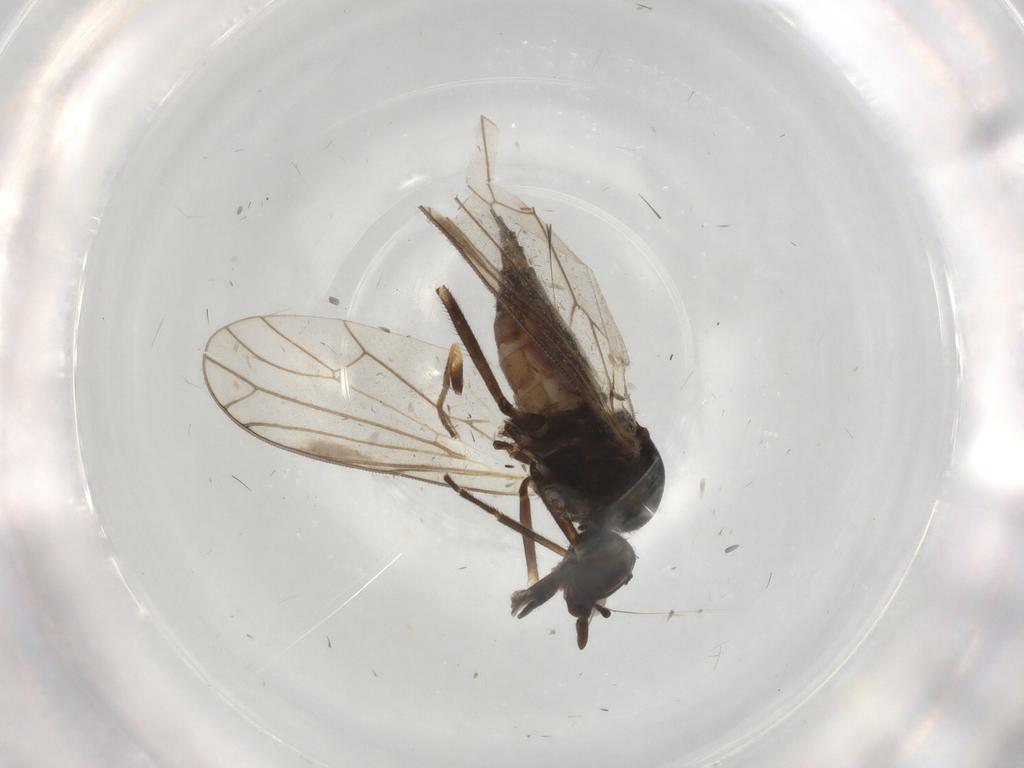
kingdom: Animalia
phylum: Arthropoda
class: Insecta
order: Diptera
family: Iteaphilidae
